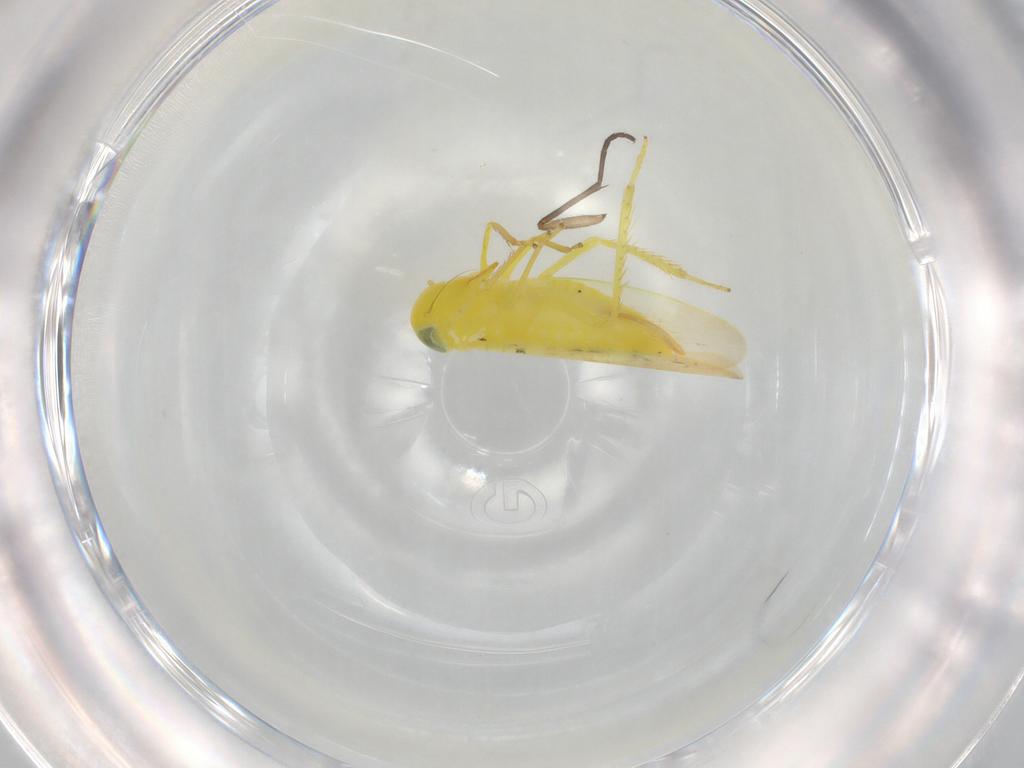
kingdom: Animalia
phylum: Arthropoda
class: Insecta
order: Hemiptera
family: Cicadellidae
